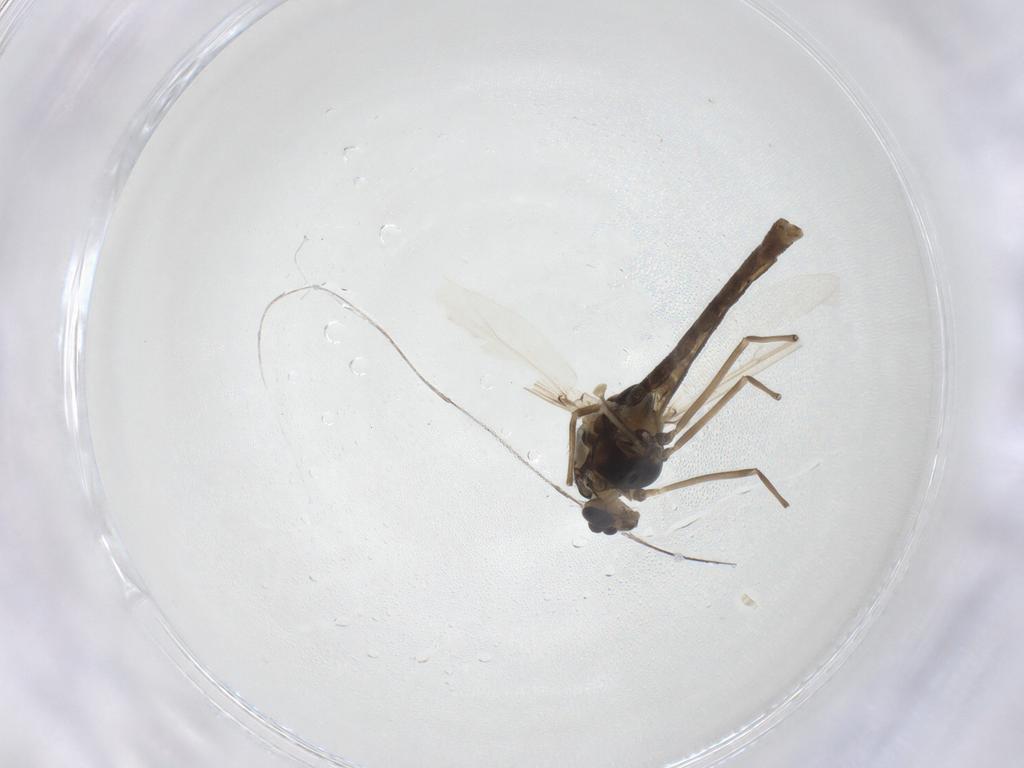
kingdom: Animalia
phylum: Arthropoda
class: Insecta
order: Diptera
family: Chironomidae
